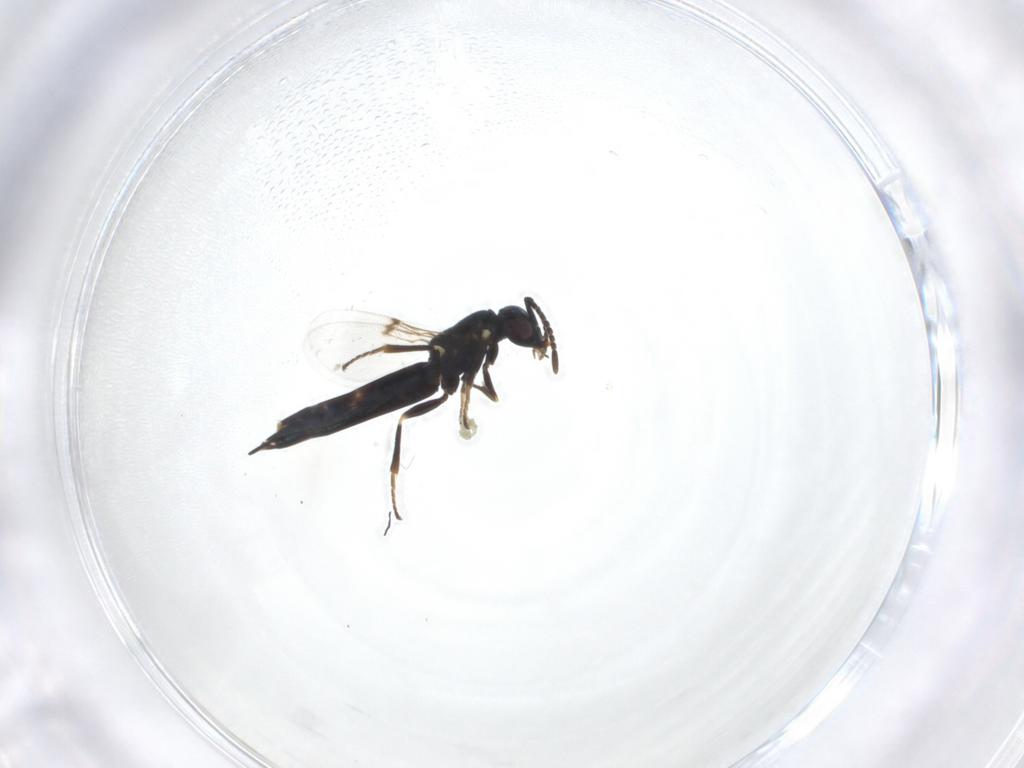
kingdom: Animalia
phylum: Arthropoda
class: Insecta
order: Hymenoptera
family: Encyrtidae
